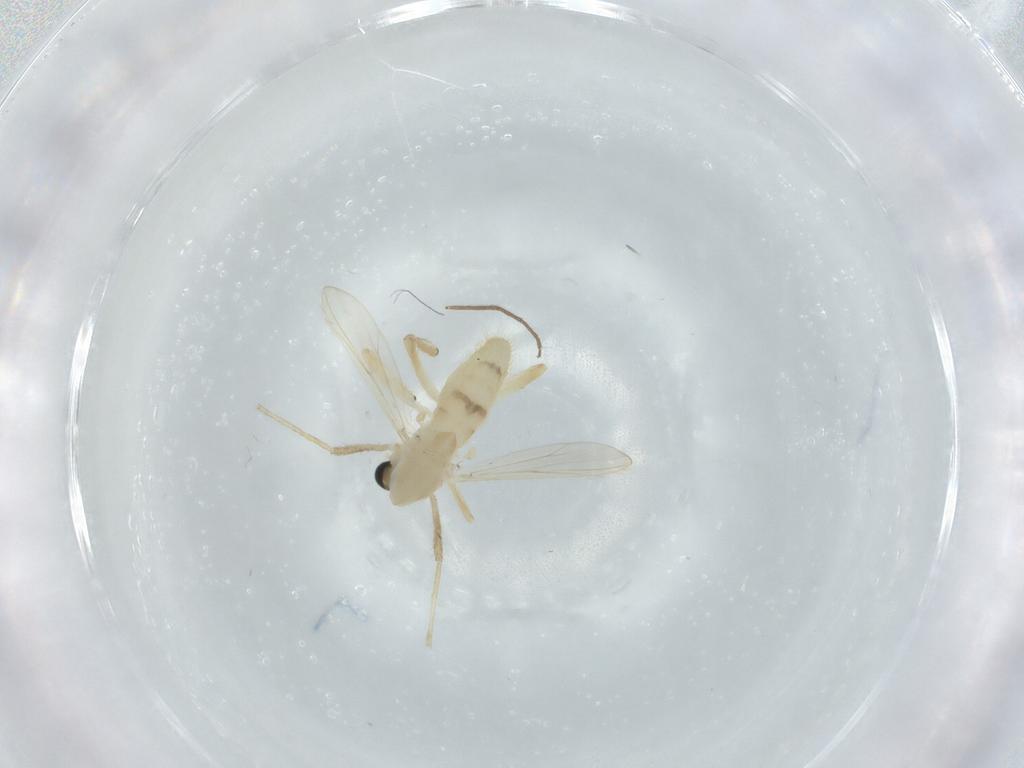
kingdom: Animalia
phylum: Arthropoda
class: Insecta
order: Diptera
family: Chironomidae
